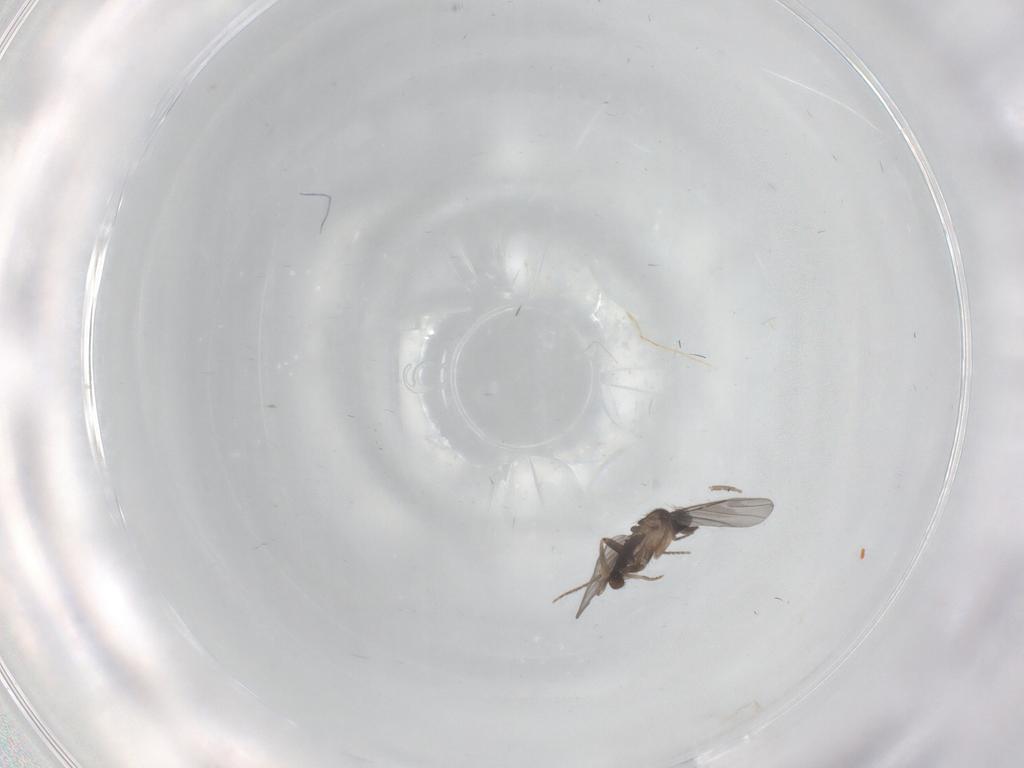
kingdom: Animalia
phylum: Arthropoda
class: Insecta
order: Diptera
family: Ceratopogonidae
